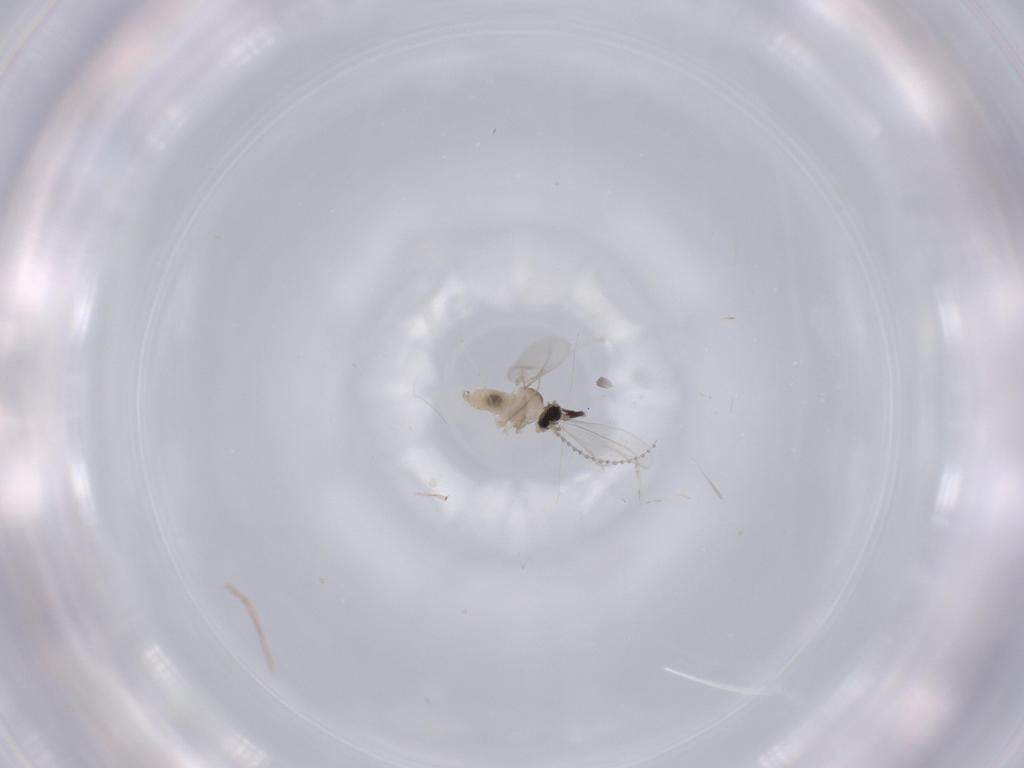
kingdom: Animalia
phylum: Arthropoda
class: Insecta
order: Diptera
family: Cecidomyiidae
